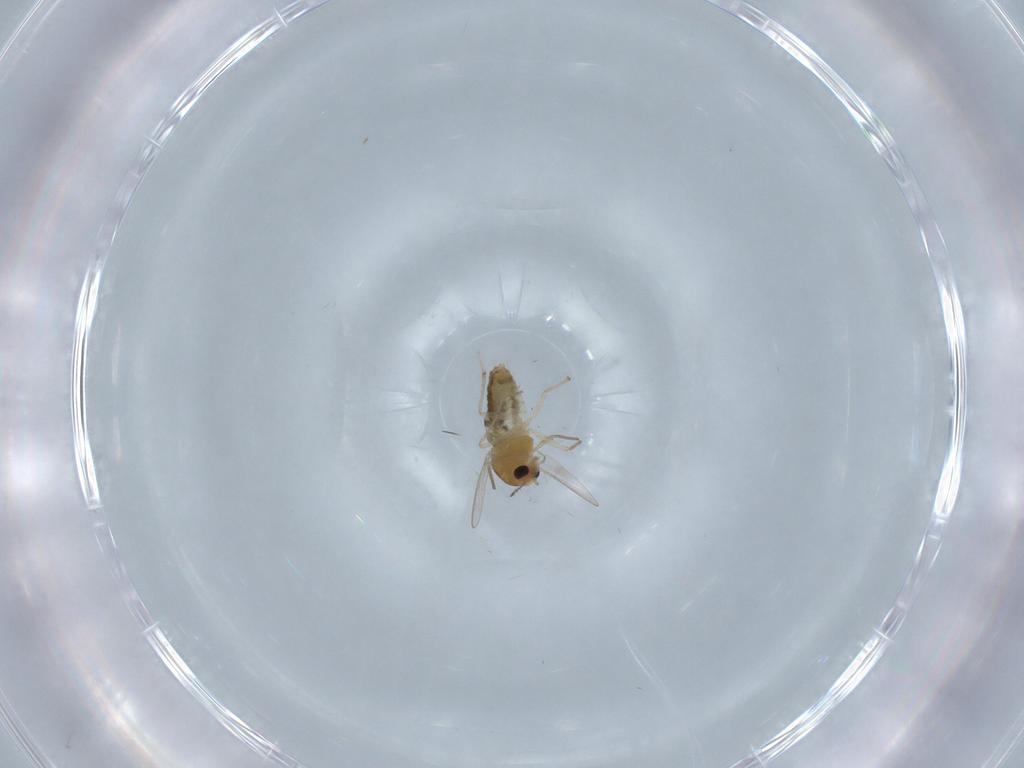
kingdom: Animalia
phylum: Arthropoda
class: Insecta
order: Diptera
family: Chironomidae
